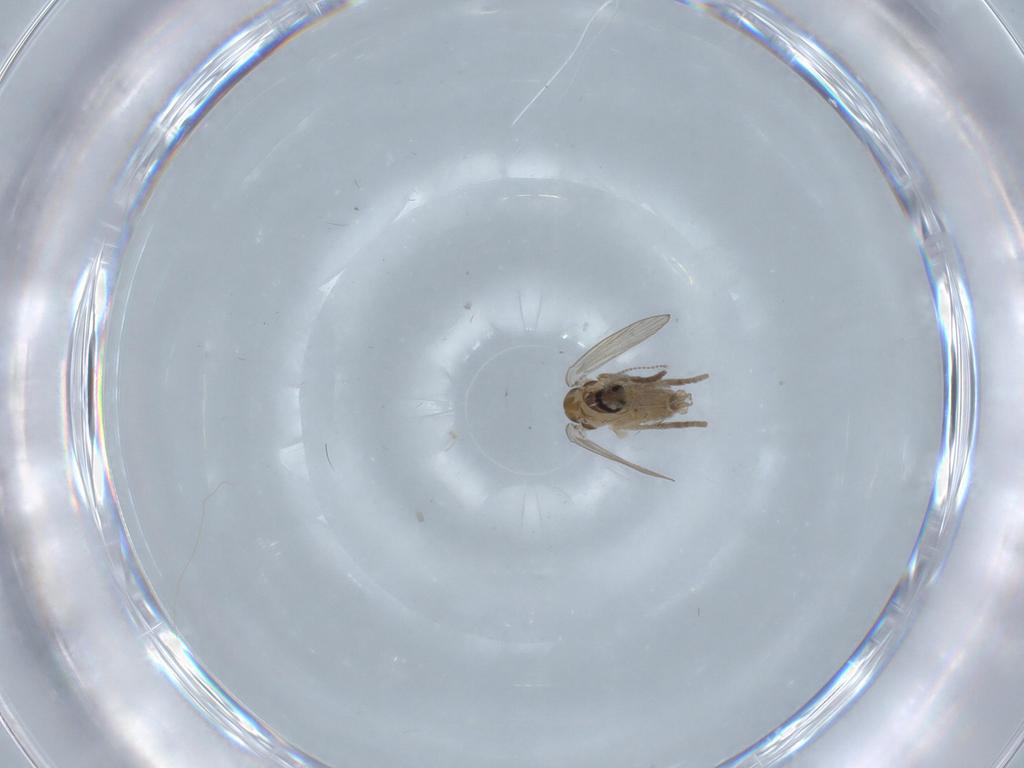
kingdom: Animalia
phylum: Arthropoda
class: Insecta
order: Diptera
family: Psychodidae
